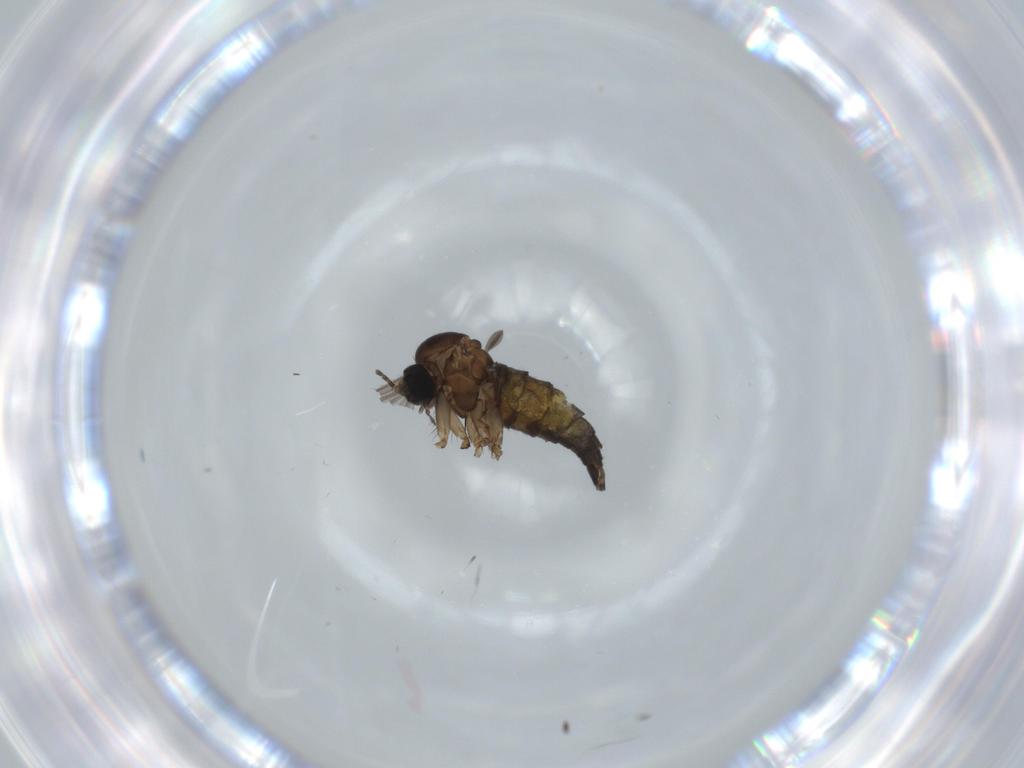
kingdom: Animalia
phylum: Arthropoda
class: Insecta
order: Diptera
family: Sciaridae
